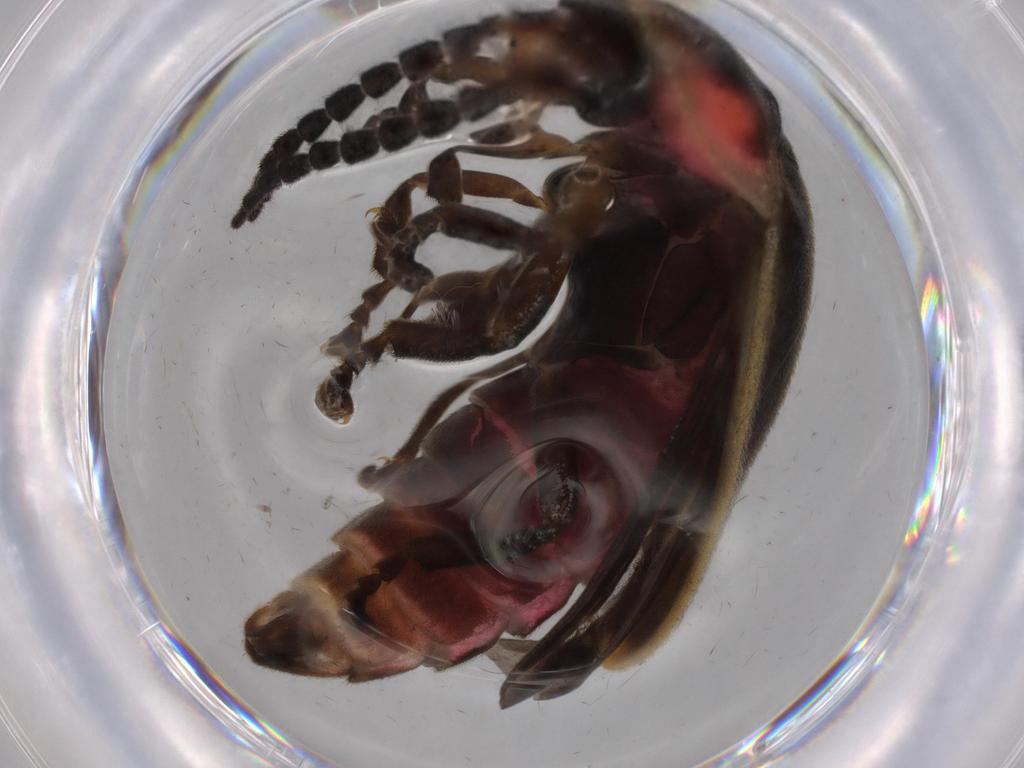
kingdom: Animalia
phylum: Arthropoda
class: Insecta
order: Coleoptera
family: Lampyridae
